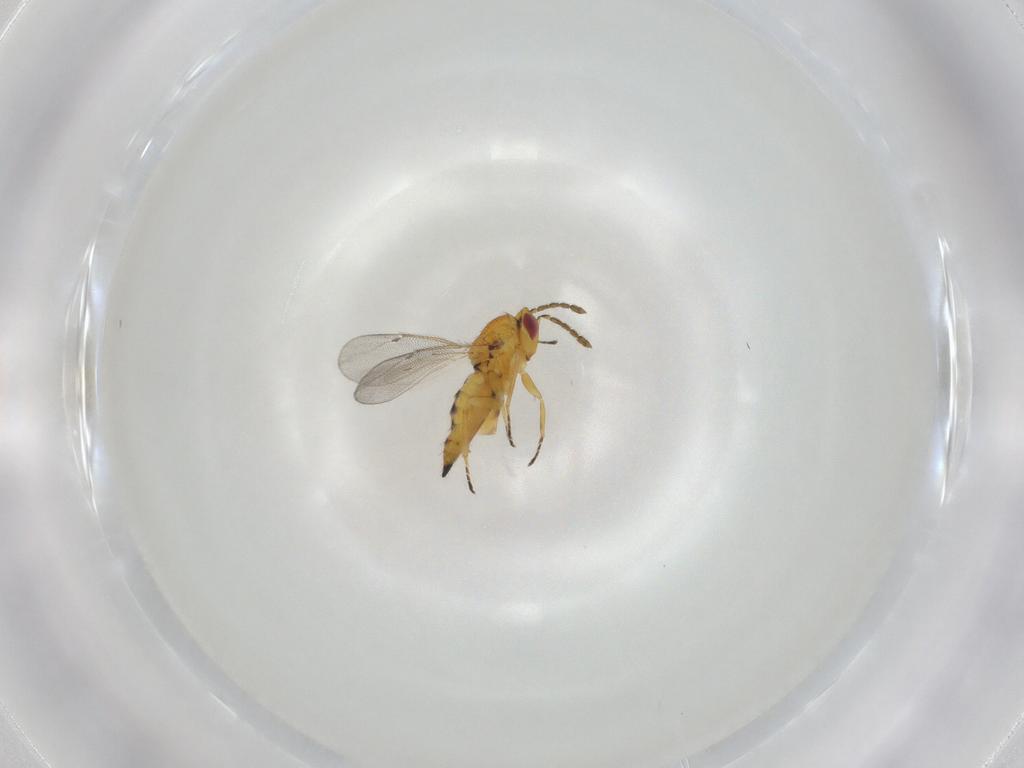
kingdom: Animalia
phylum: Arthropoda
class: Insecta
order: Hymenoptera
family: Eulophidae
